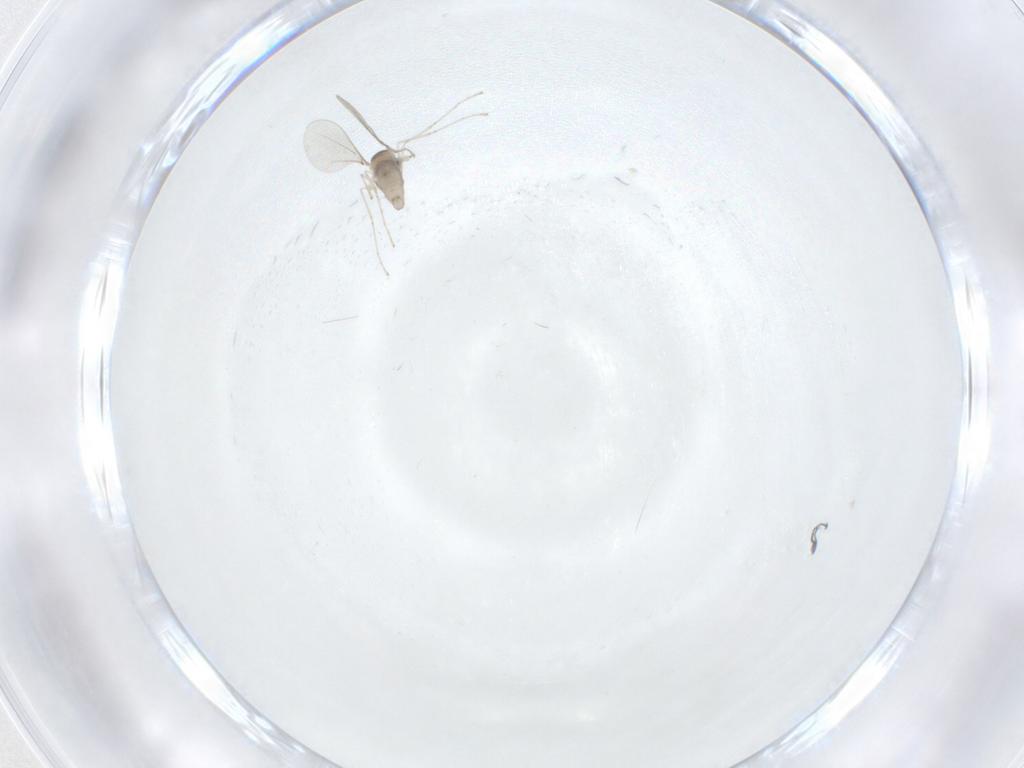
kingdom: Animalia
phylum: Arthropoda
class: Insecta
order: Diptera
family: Sciaridae
